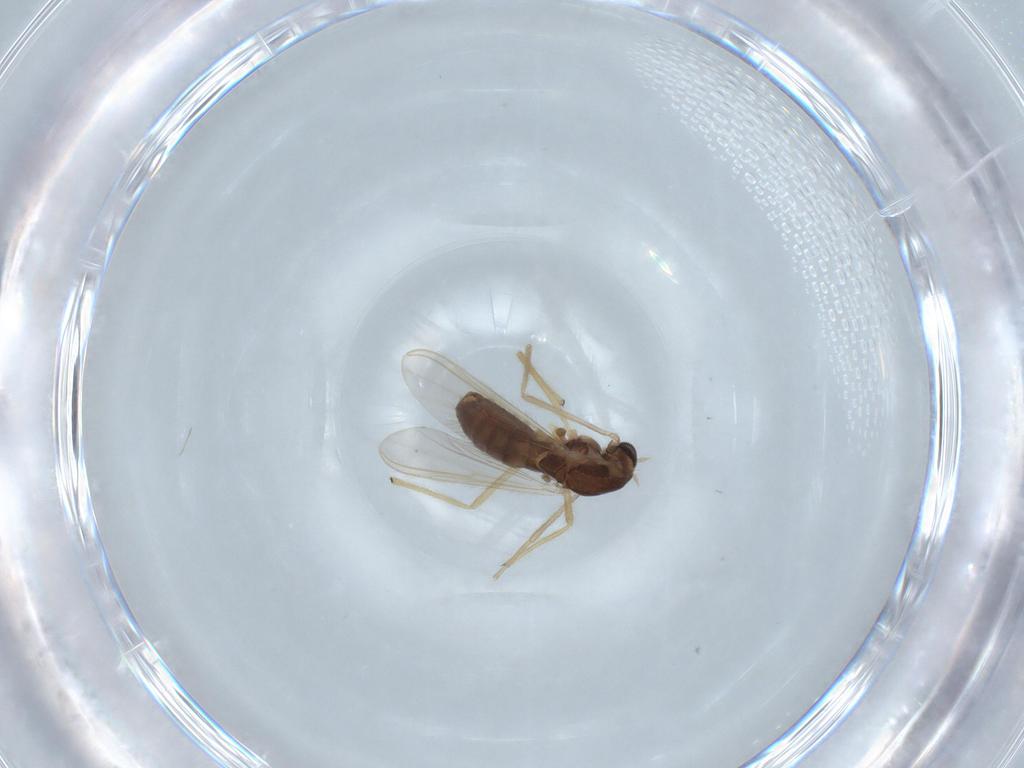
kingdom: Animalia
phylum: Arthropoda
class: Insecta
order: Diptera
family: Chironomidae
